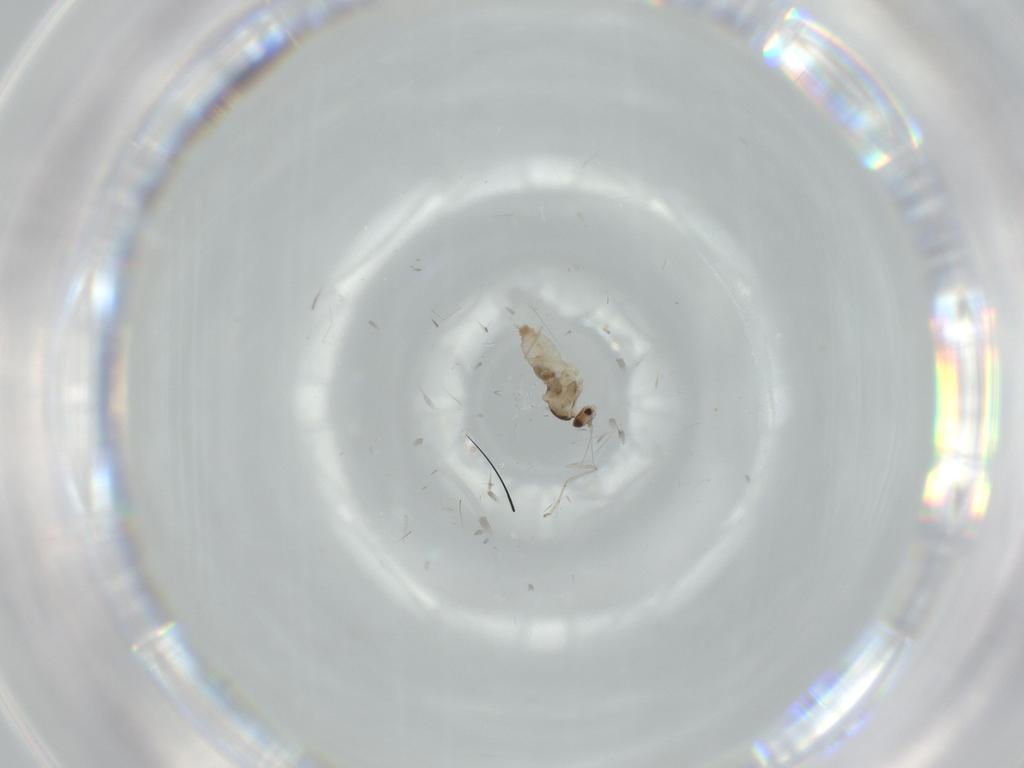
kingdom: Animalia
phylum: Arthropoda
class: Insecta
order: Diptera
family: Cecidomyiidae
